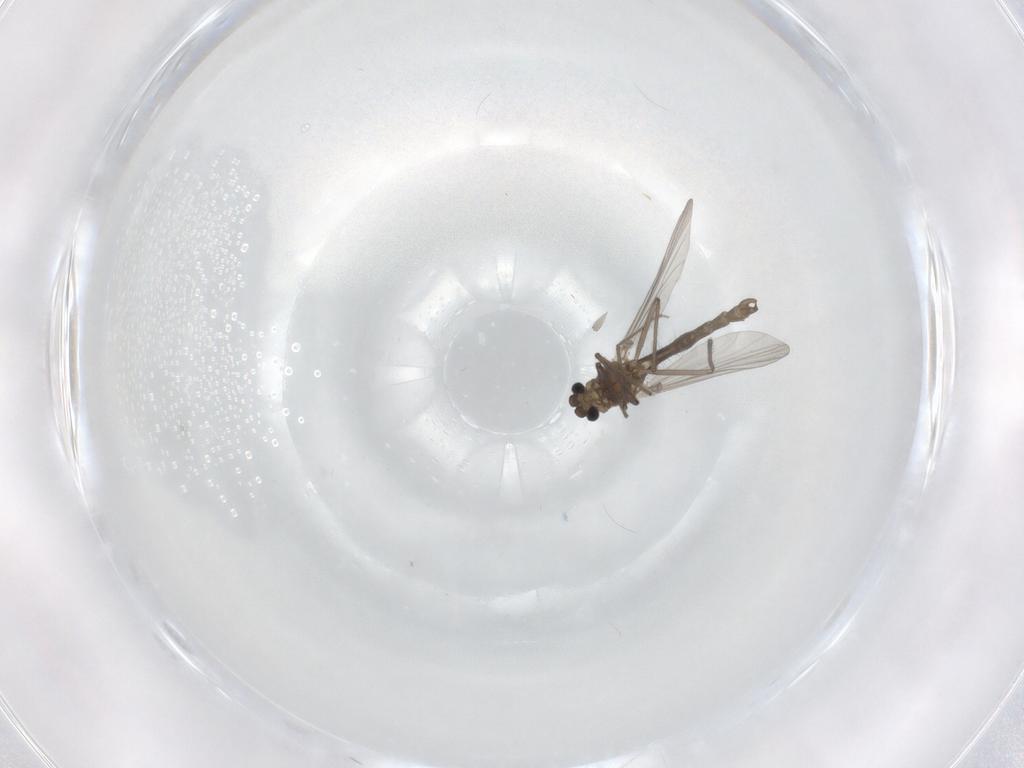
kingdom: Animalia
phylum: Arthropoda
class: Insecta
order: Diptera
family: Chironomidae
